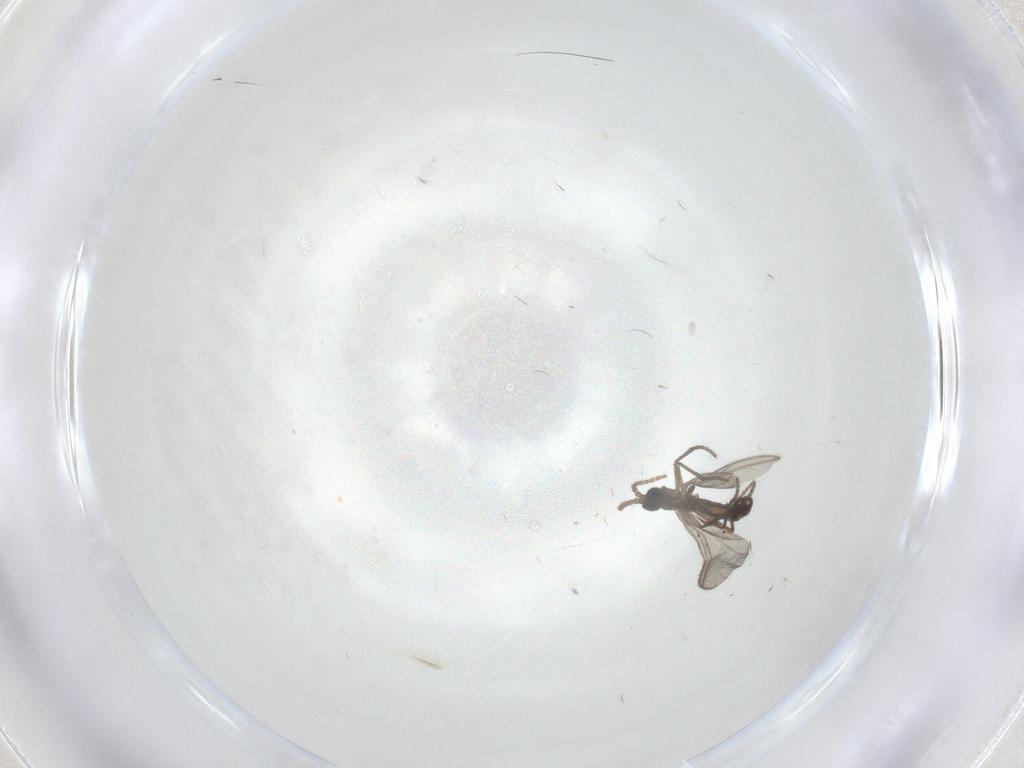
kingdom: Animalia
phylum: Arthropoda
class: Insecta
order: Diptera
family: Sciaridae
